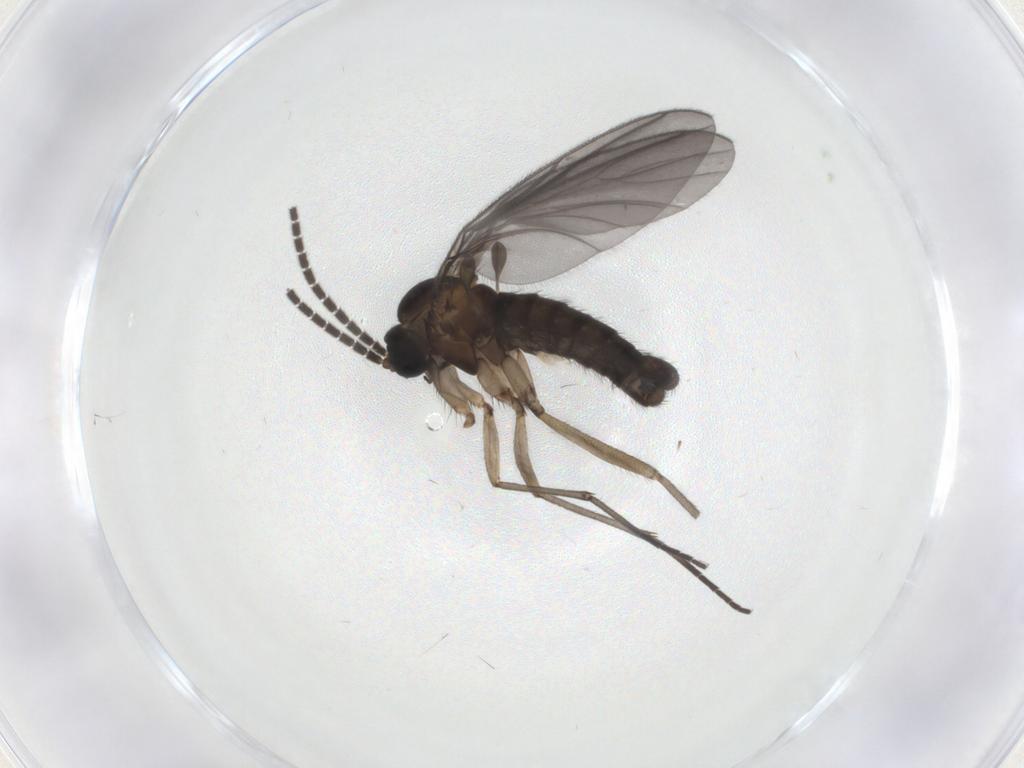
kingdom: Animalia
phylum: Arthropoda
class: Insecta
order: Diptera
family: Sciaridae
